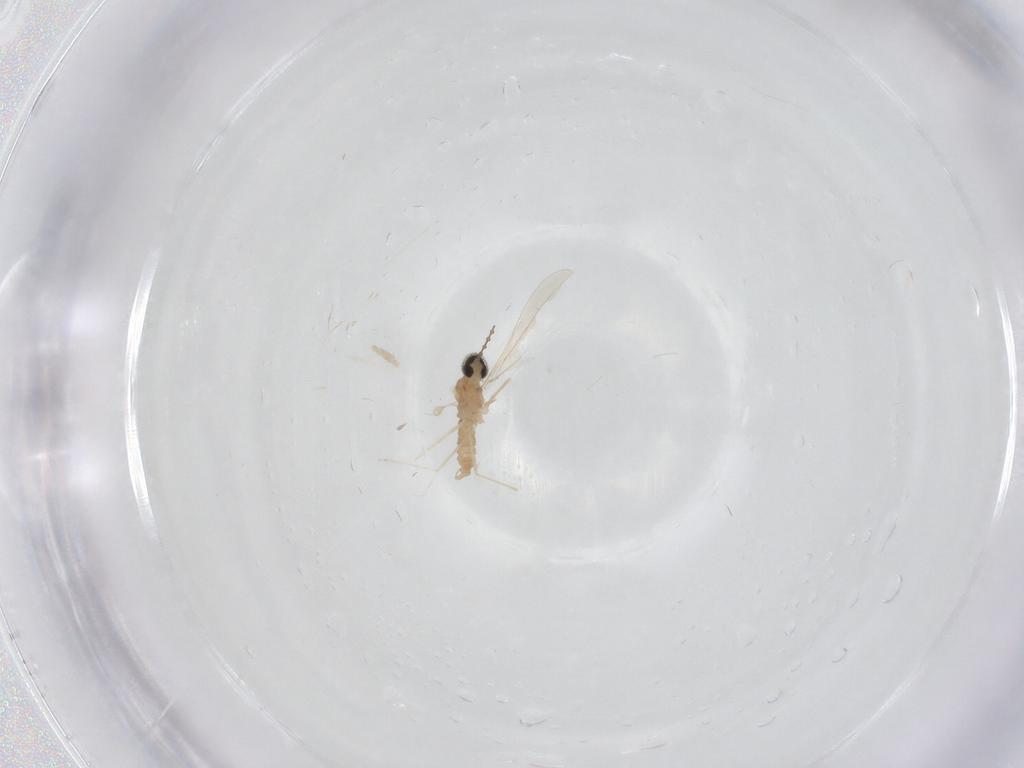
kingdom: Animalia
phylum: Arthropoda
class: Insecta
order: Diptera
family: Cecidomyiidae
